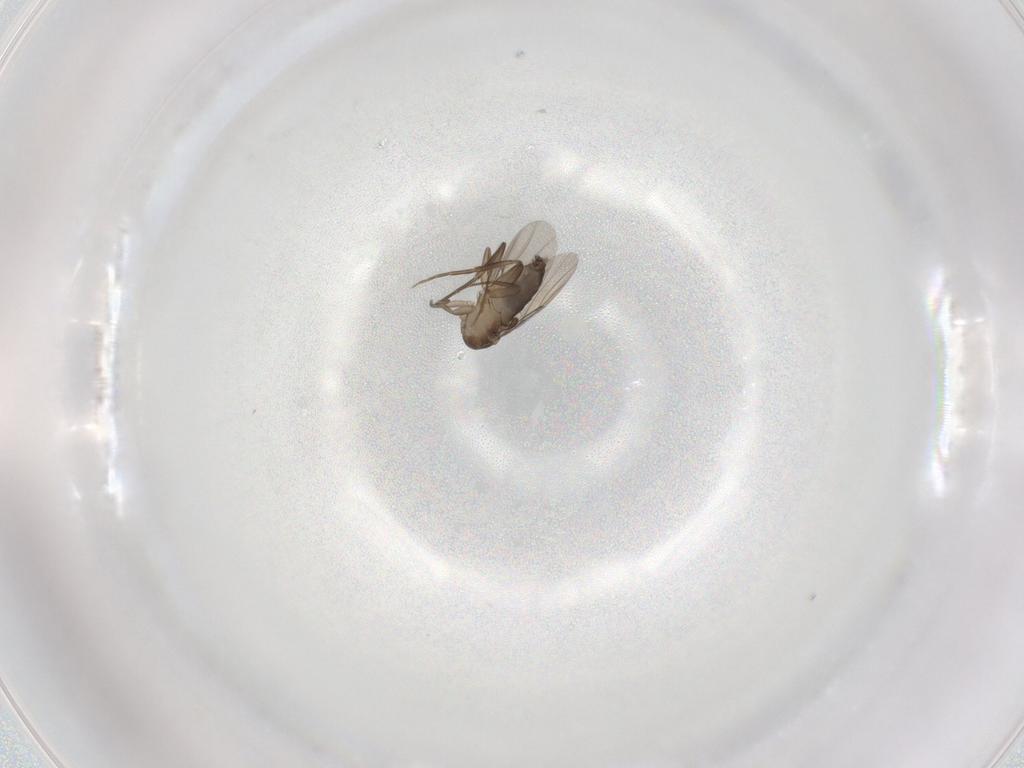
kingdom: Animalia
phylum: Arthropoda
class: Insecta
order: Diptera
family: Phoridae
